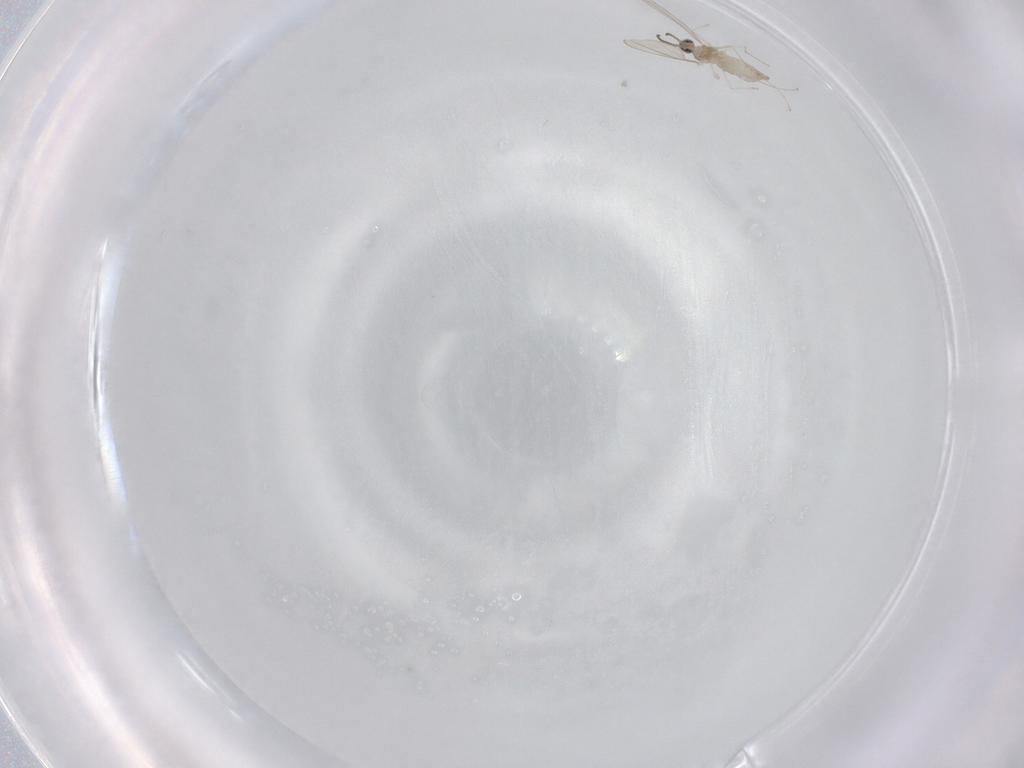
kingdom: Animalia
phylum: Arthropoda
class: Insecta
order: Diptera
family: Cecidomyiidae
